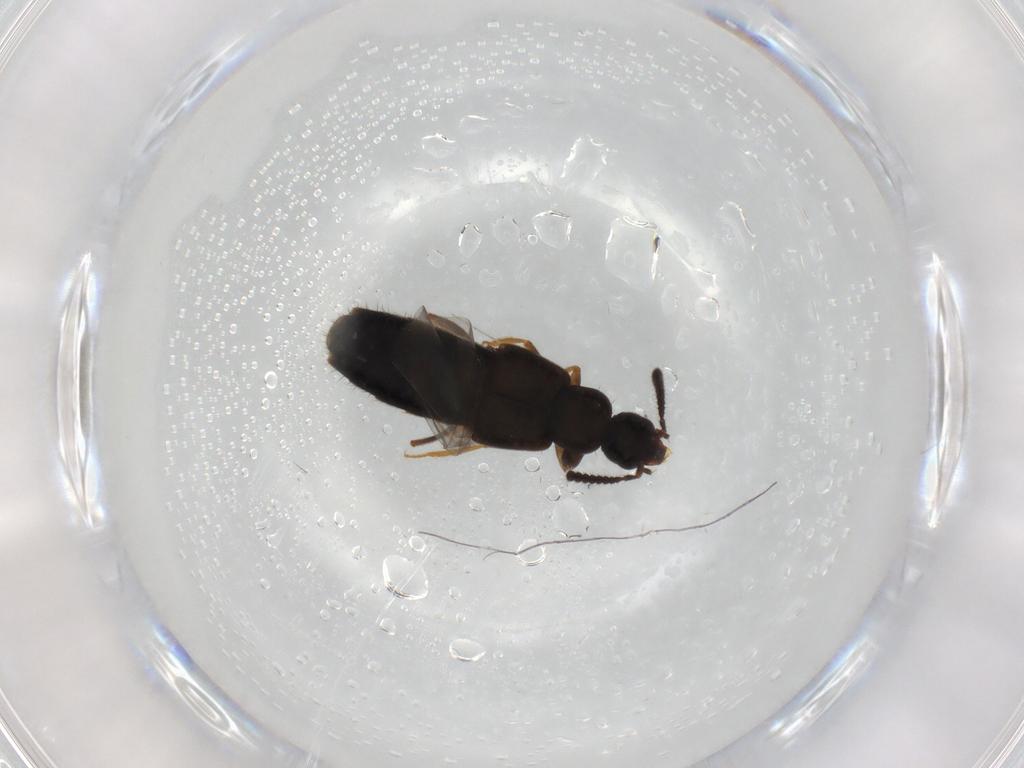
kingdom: Animalia
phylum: Arthropoda
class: Insecta
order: Coleoptera
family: Staphylinidae
